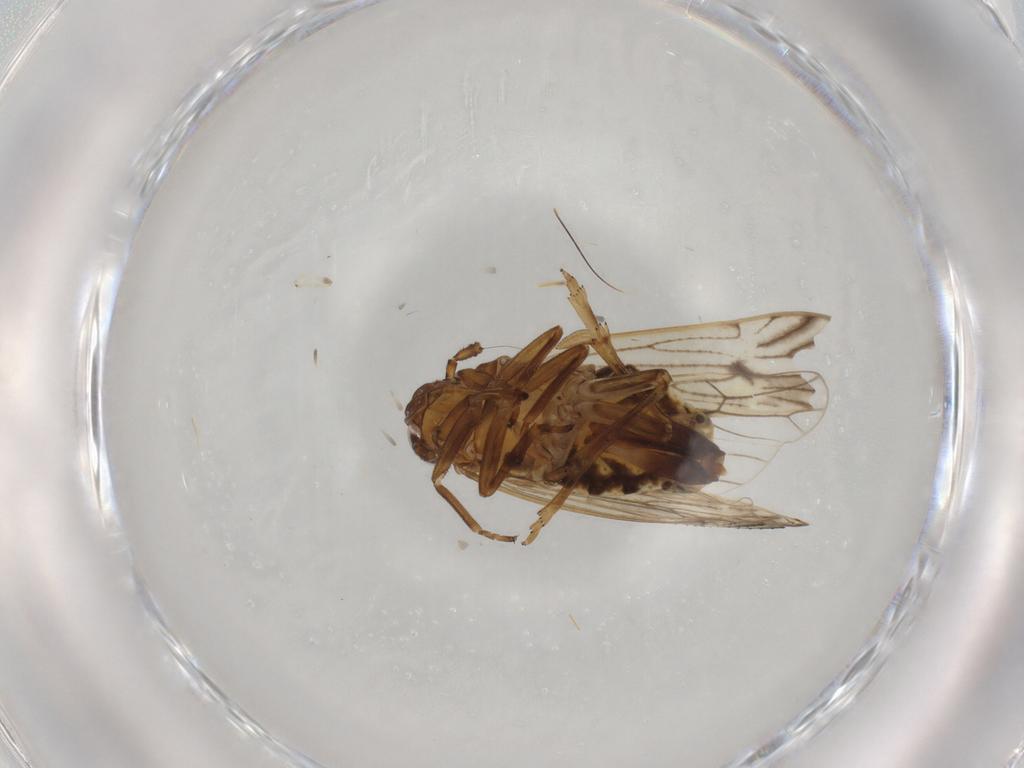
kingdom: Animalia
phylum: Arthropoda
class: Insecta
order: Hemiptera
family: Delphacidae
